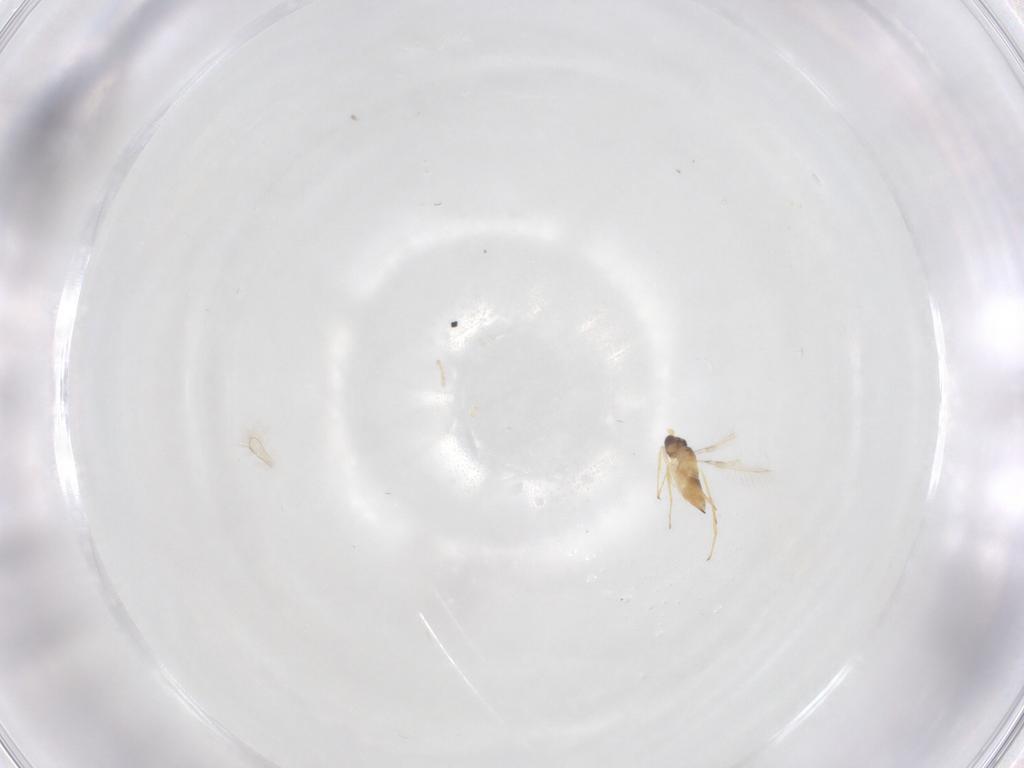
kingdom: Animalia
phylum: Arthropoda
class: Insecta
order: Hymenoptera
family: Mymaridae
